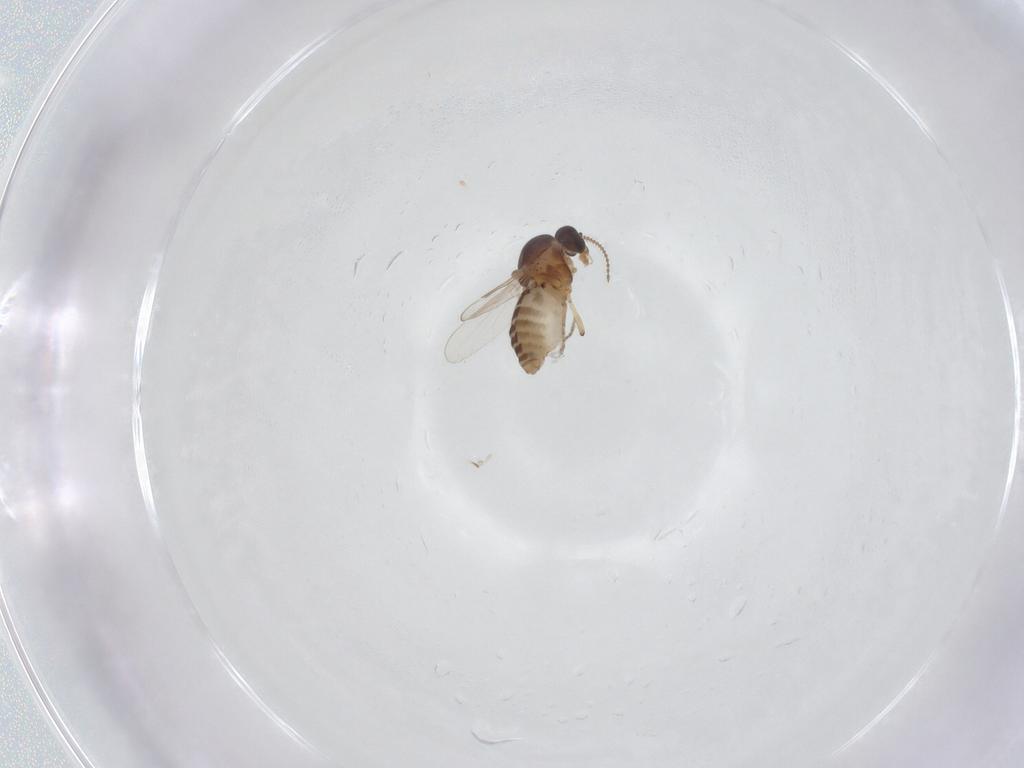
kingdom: Animalia
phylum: Arthropoda
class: Insecta
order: Diptera
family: Ceratopogonidae
